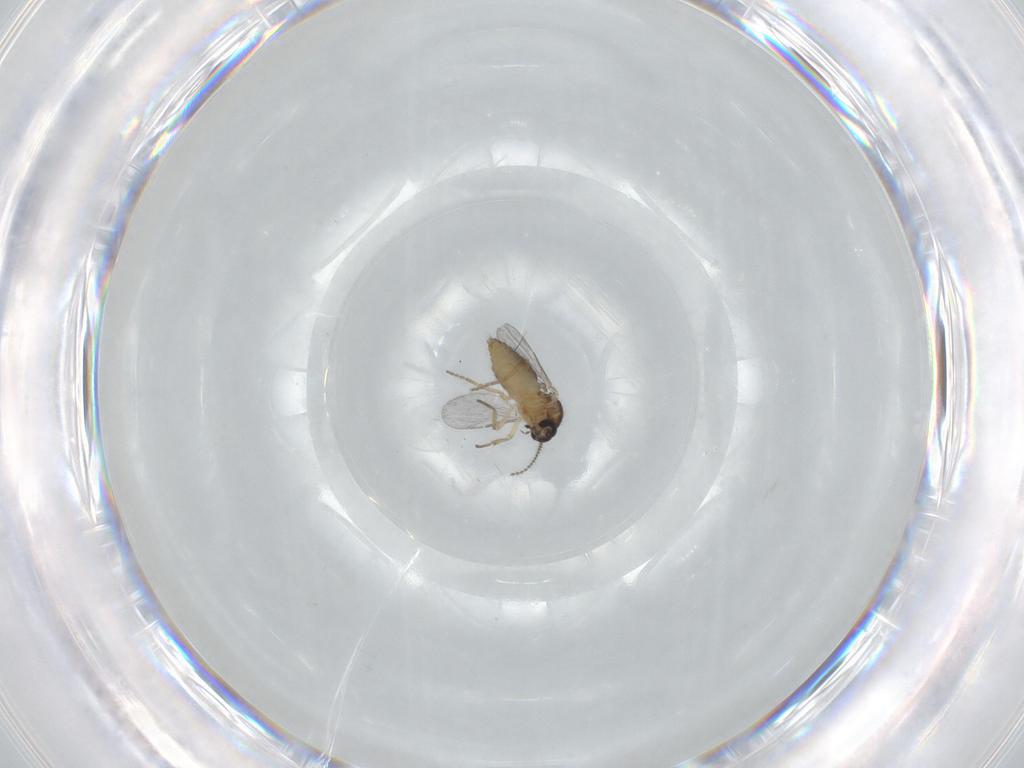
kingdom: Animalia
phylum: Arthropoda
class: Insecta
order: Diptera
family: Ceratopogonidae
